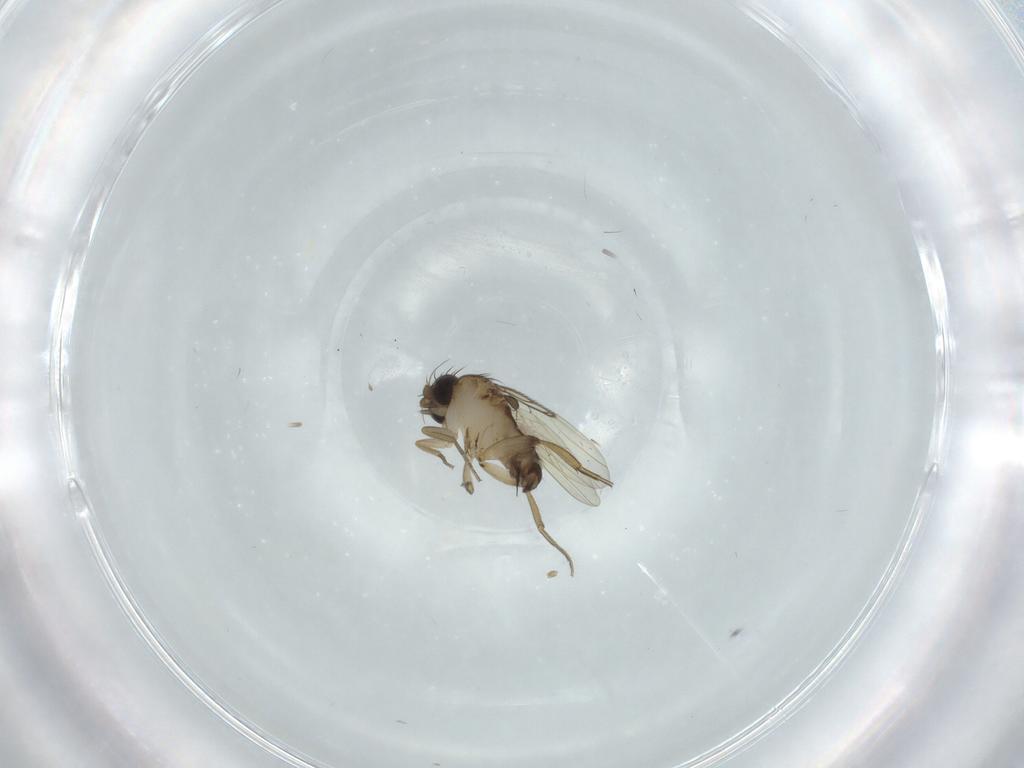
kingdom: Animalia
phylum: Arthropoda
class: Insecta
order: Diptera
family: Phoridae
